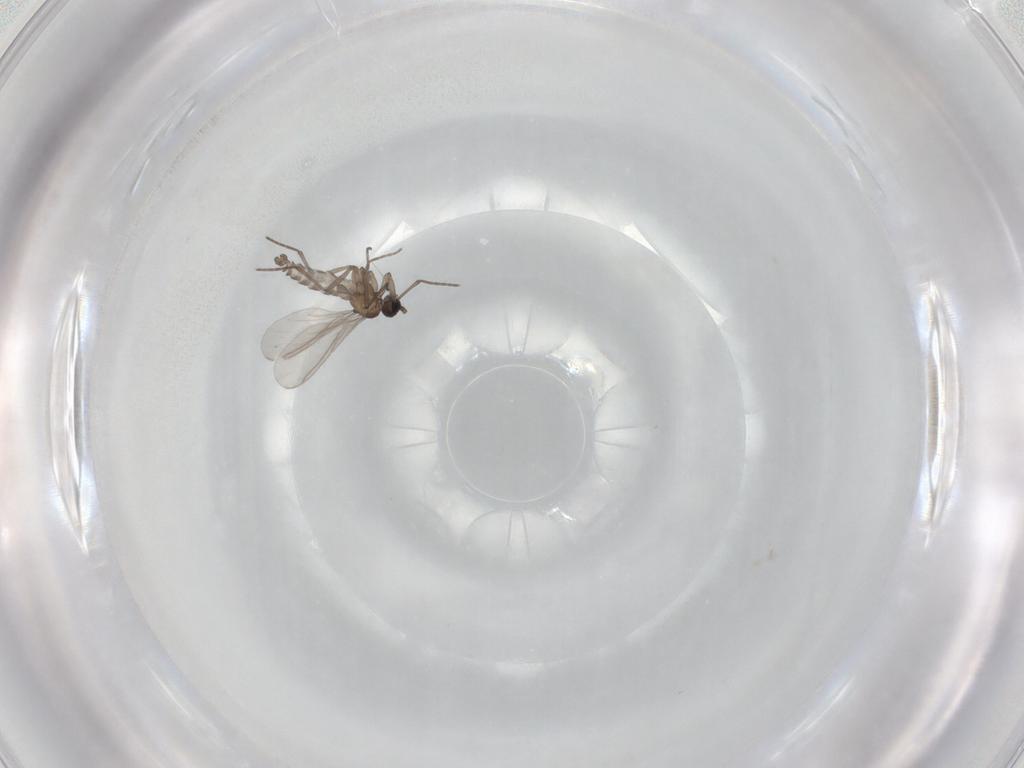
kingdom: Animalia
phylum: Arthropoda
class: Insecta
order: Diptera
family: Sciaridae
